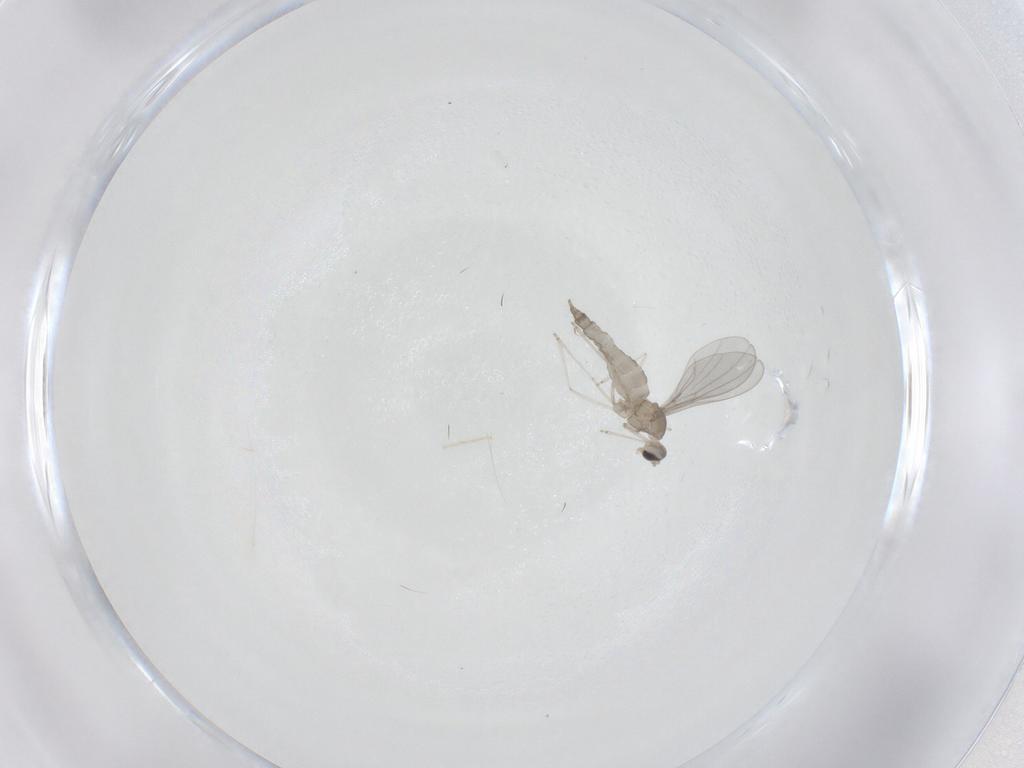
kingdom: Animalia
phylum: Arthropoda
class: Insecta
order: Diptera
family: Psychodidae
